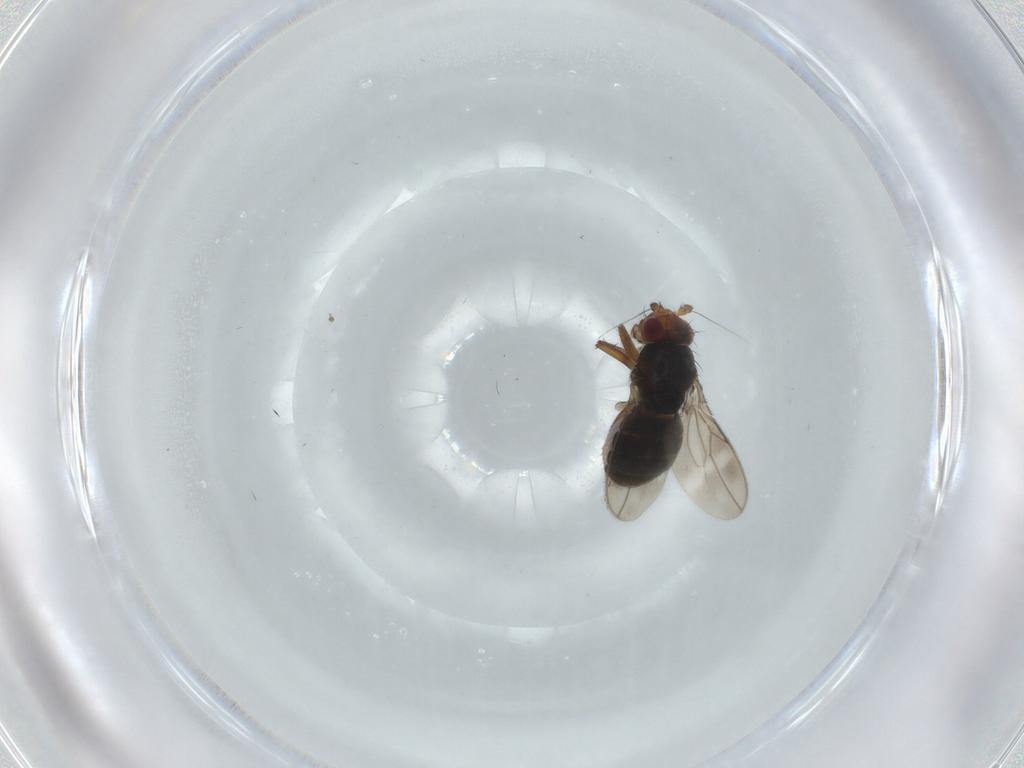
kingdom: Animalia
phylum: Arthropoda
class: Insecta
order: Diptera
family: Sphaeroceridae
